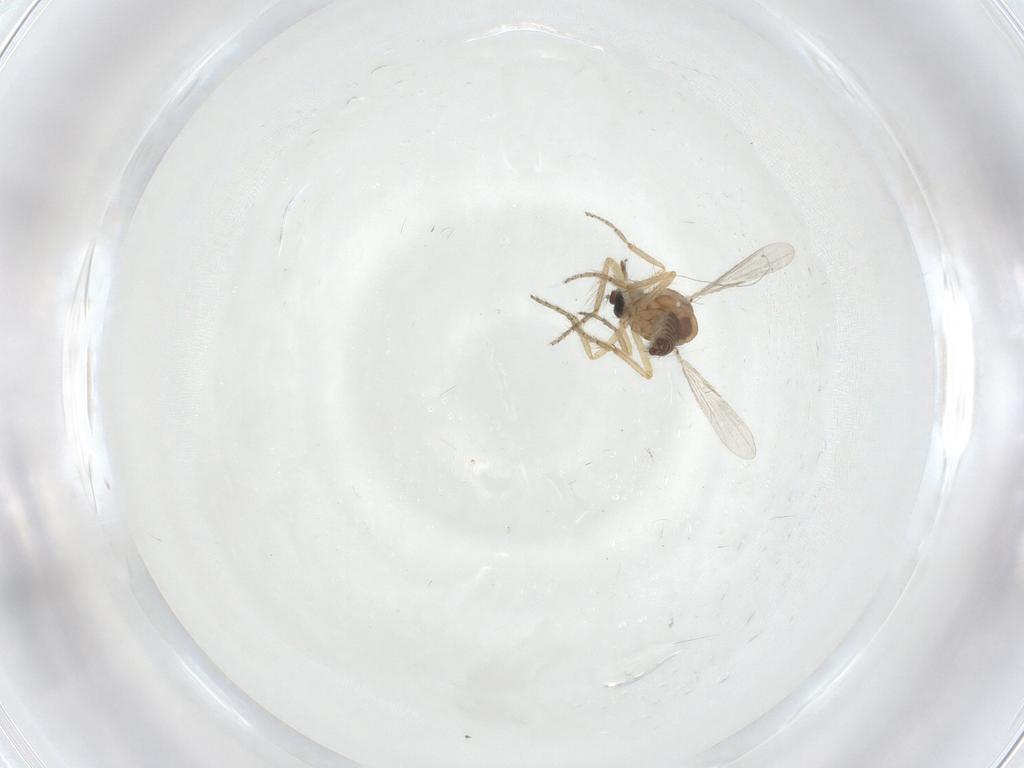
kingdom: Animalia
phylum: Arthropoda
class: Insecta
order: Diptera
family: Ceratopogonidae
